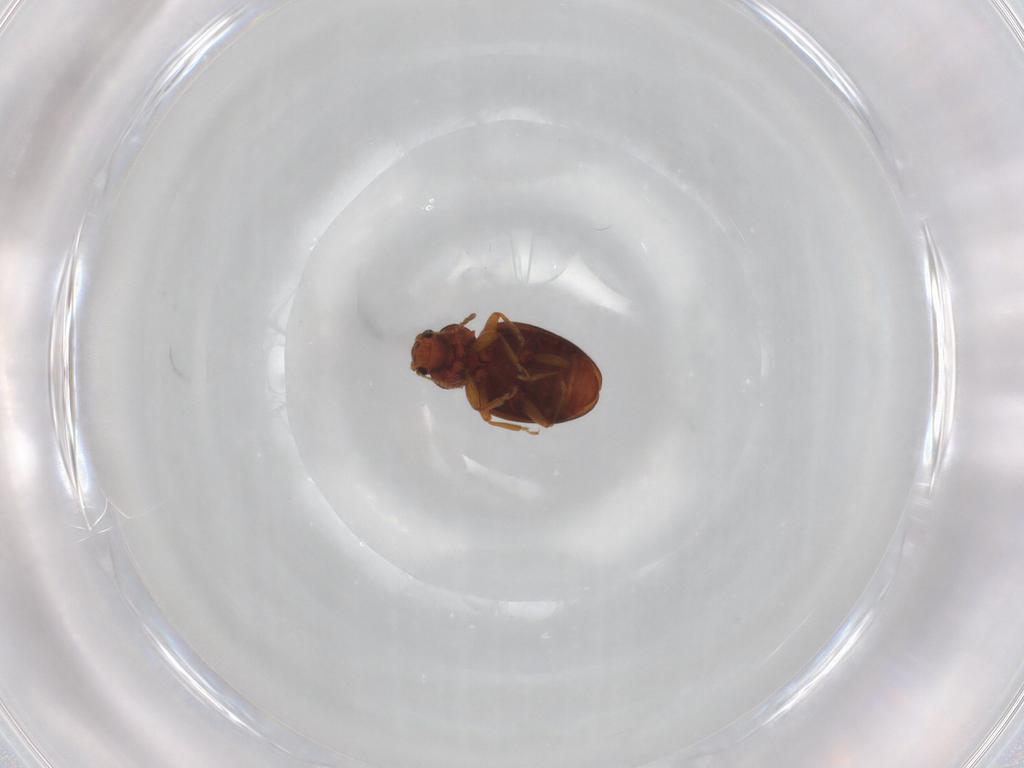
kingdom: Animalia
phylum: Arthropoda
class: Insecta
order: Coleoptera
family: Latridiidae
